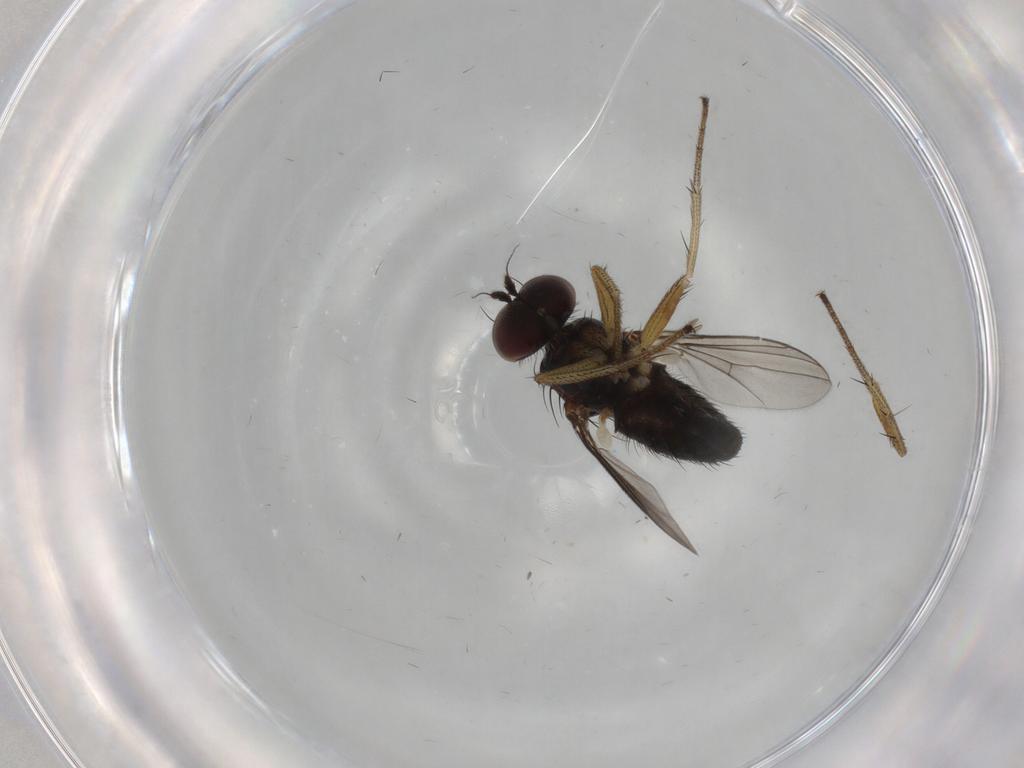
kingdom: Animalia
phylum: Arthropoda
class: Insecta
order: Diptera
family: Dolichopodidae
